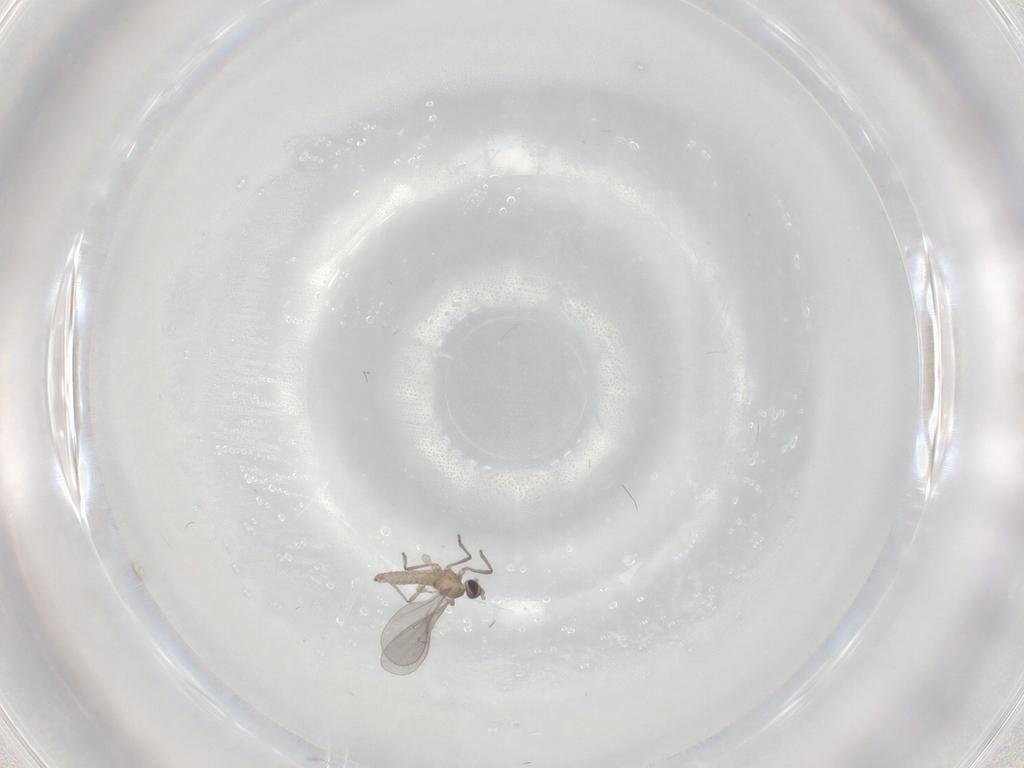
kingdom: Animalia
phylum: Arthropoda
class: Insecta
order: Diptera
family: Cecidomyiidae
